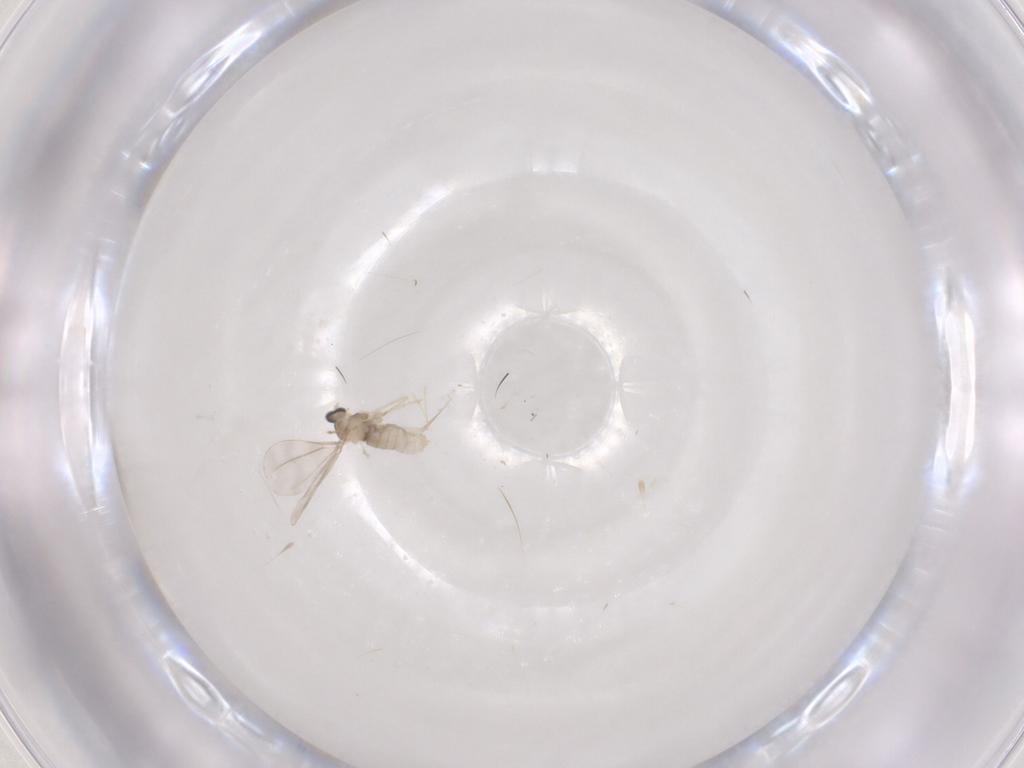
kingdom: Animalia
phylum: Arthropoda
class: Insecta
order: Diptera
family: Cecidomyiidae
